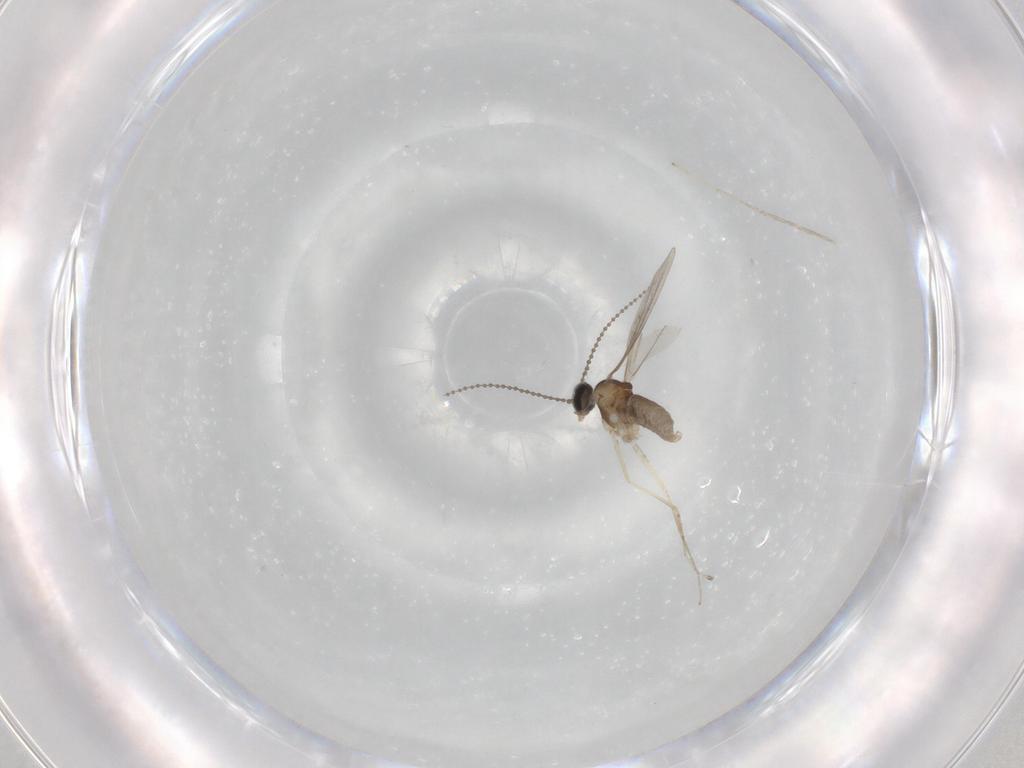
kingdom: Animalia
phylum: Arthropoda
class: Insecta
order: Diptera
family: Cecidomyiidae
